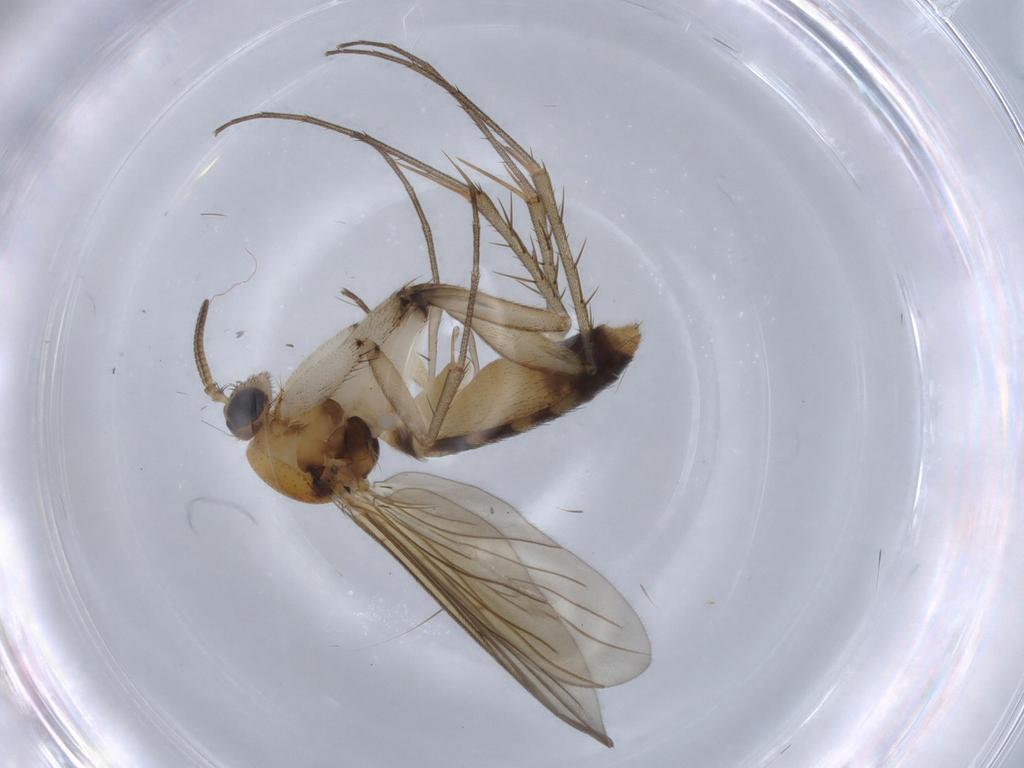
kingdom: Animalia
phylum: Arthropoda
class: Insecta
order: Diptera
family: Mycetophilidae
